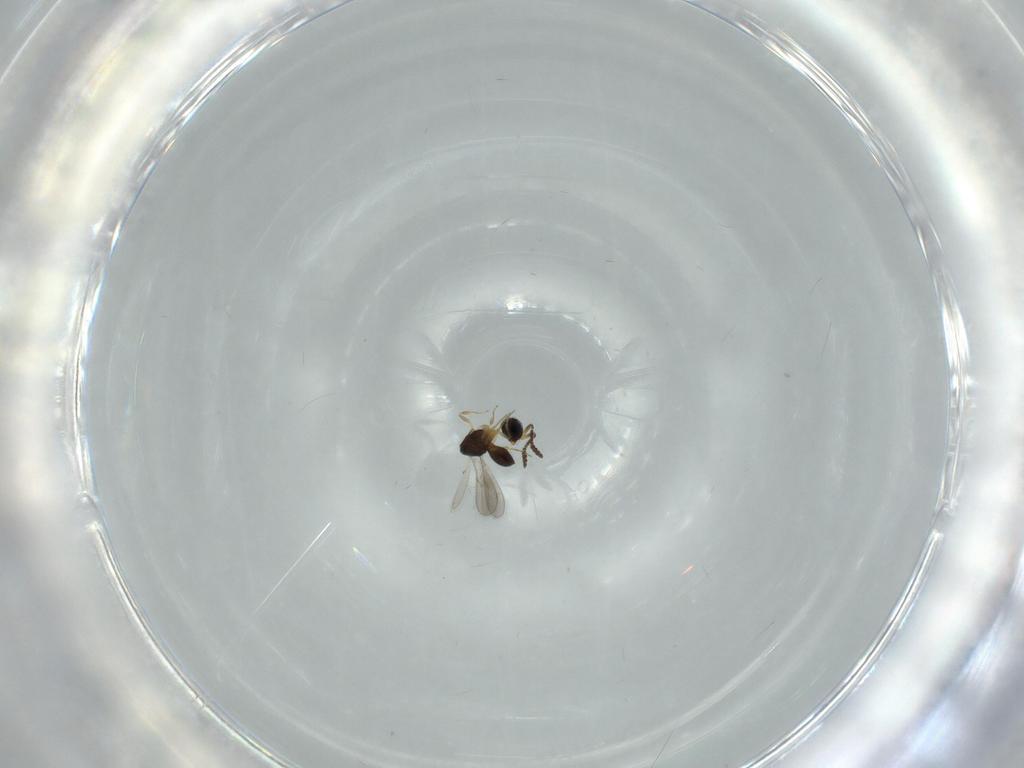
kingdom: Animalia
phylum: Arthropoda
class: Insecta
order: Hymenoptera
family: Scelionidae
